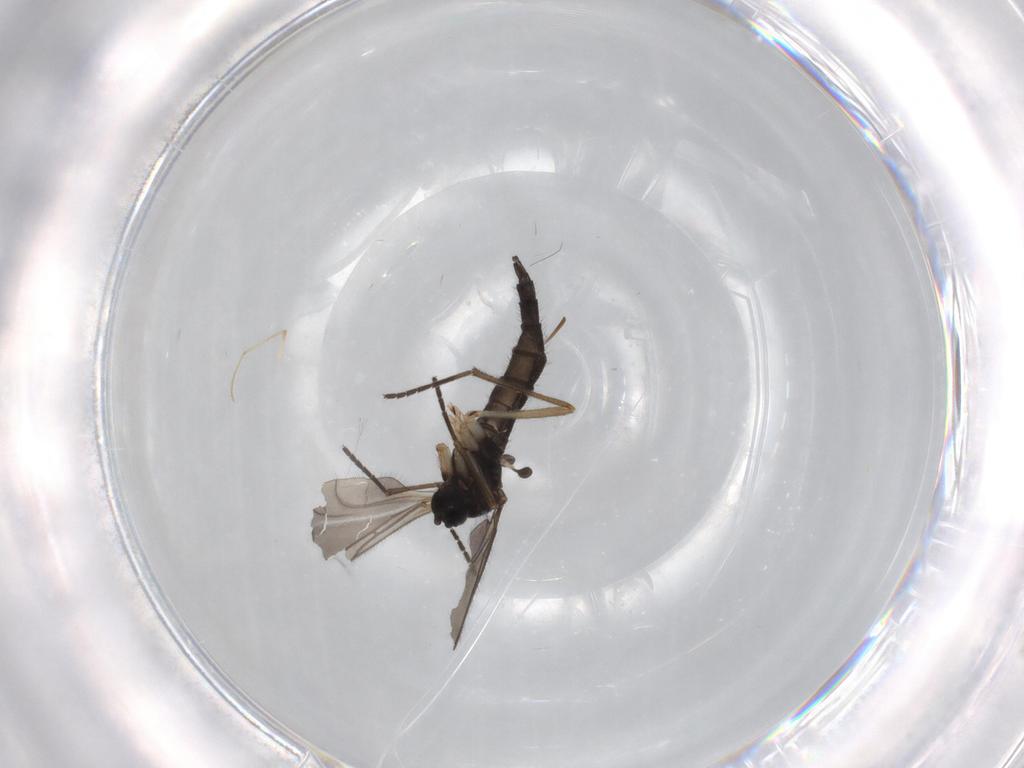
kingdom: Animalia
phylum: Arthropoda
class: Insecta
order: Diptera
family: Sciaridae
